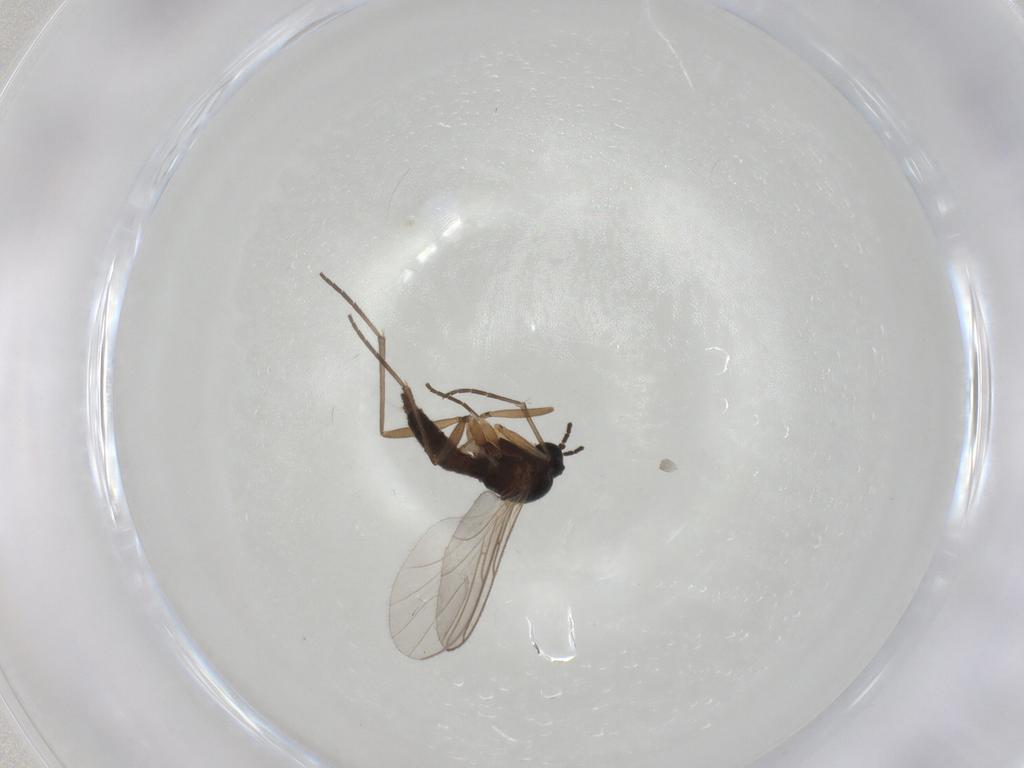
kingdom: Animalia
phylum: Arthropoda
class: Insecta
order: Diptera
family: Sciaridae
